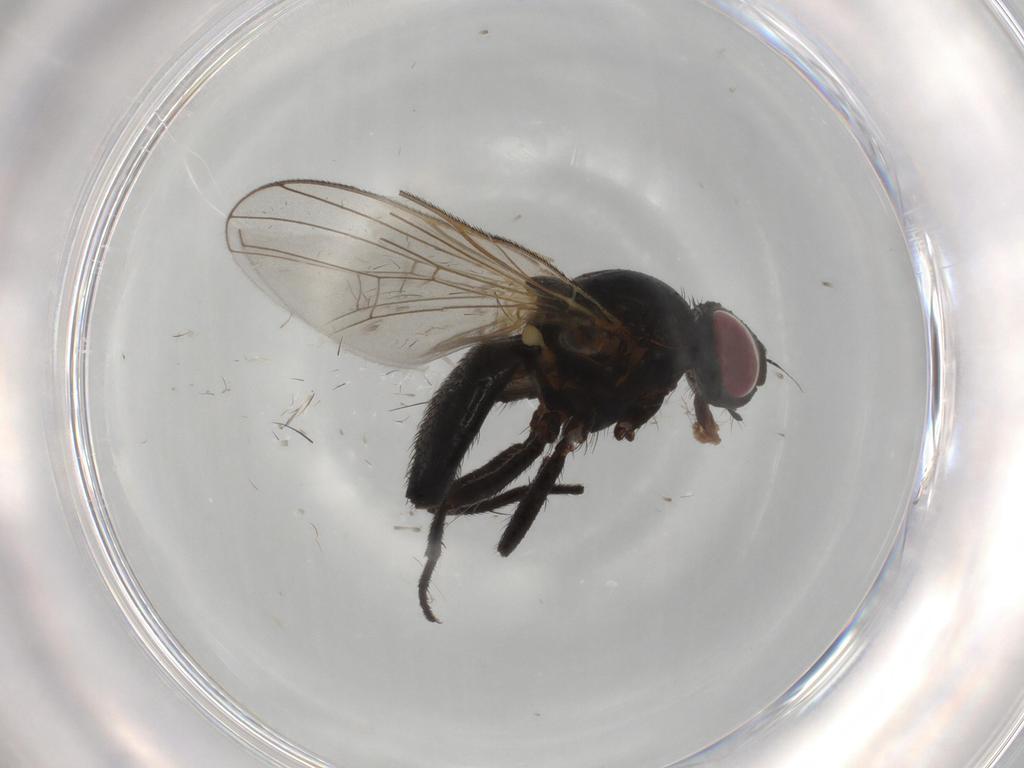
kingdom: Animalia
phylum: Arthropoda
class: Insecta
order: Diptera
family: Fannia
